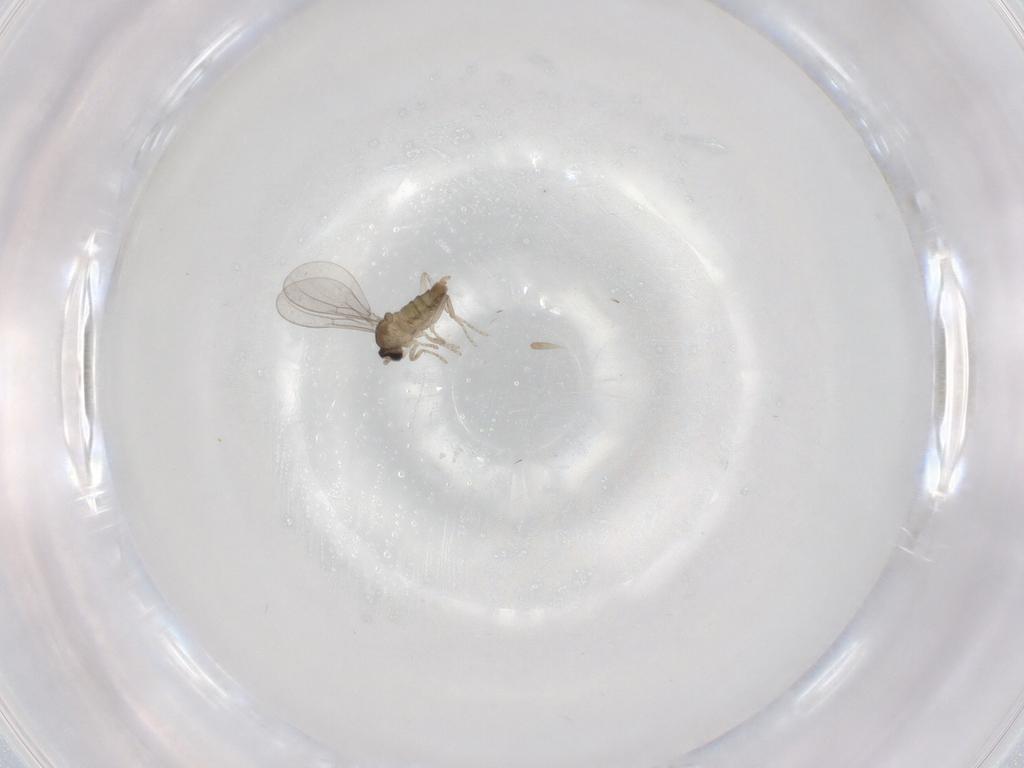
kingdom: Animalia
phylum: Arthropoda
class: Insecta
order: Diptera
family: Cecidomyiidae
